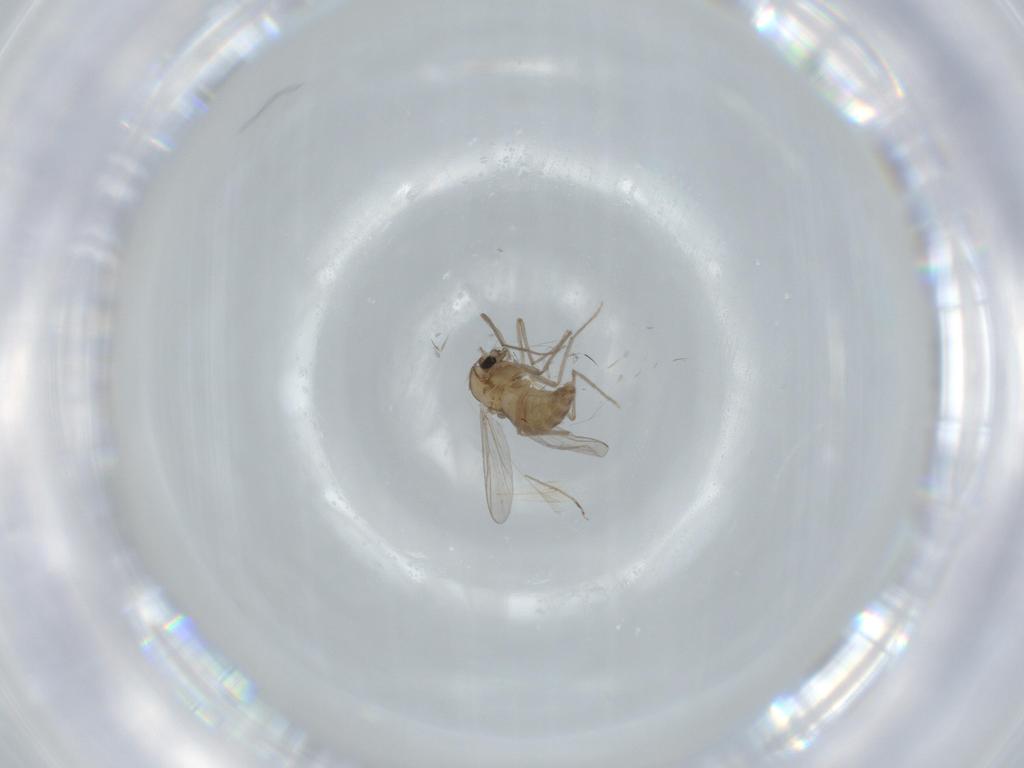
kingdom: Animalia
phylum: Arthropoda
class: Insecta
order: Diptera
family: Chironomidae
